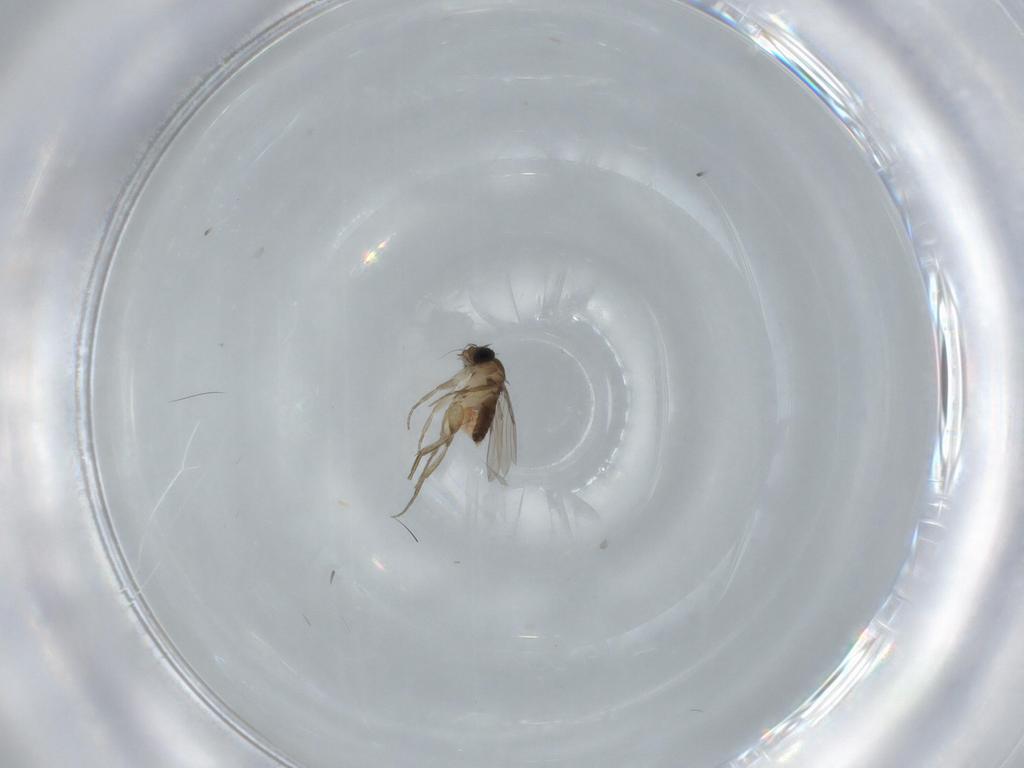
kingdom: Animalia
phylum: Arthropoda
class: Insecta
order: Diptera
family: Phoridae
